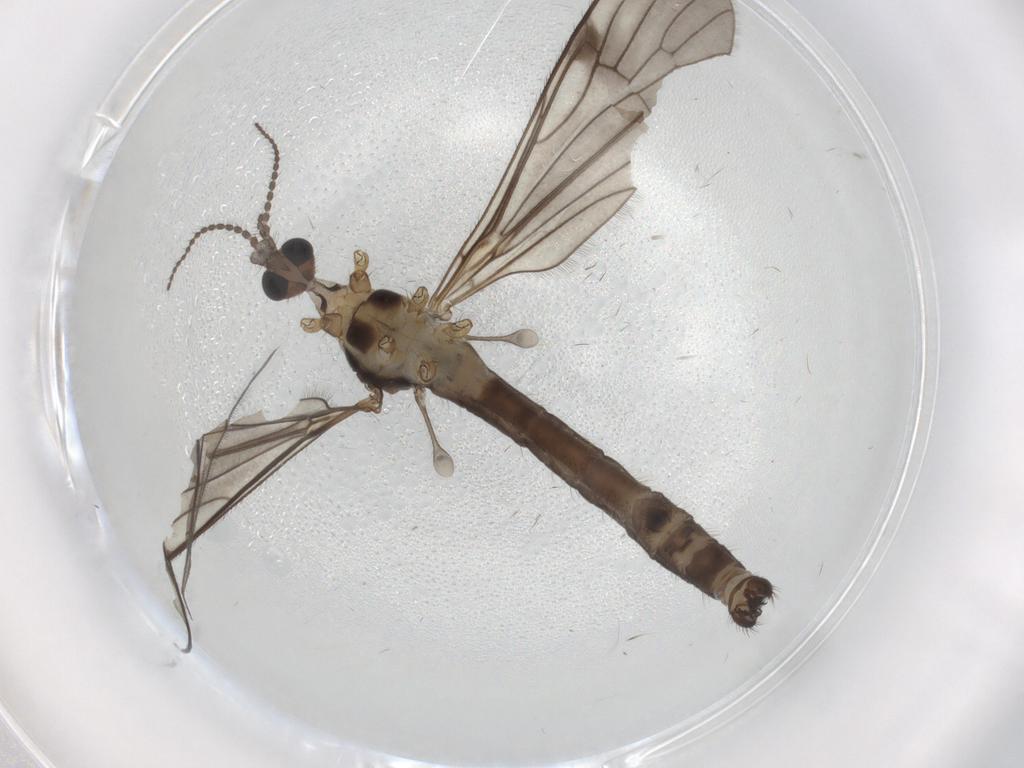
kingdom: Animalia
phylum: Arthropoda
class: Insecta
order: Diptera
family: Limoniidae
